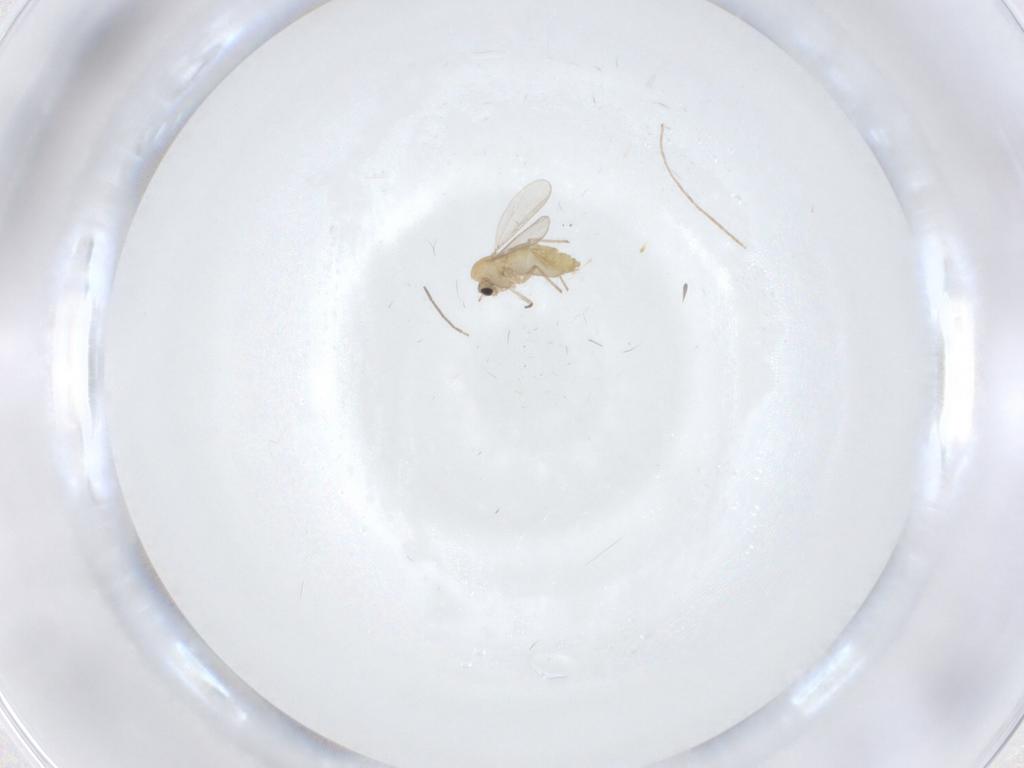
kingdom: Animalia
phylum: Arthropoda
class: Insecta
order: Diptera
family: Chironomidae
